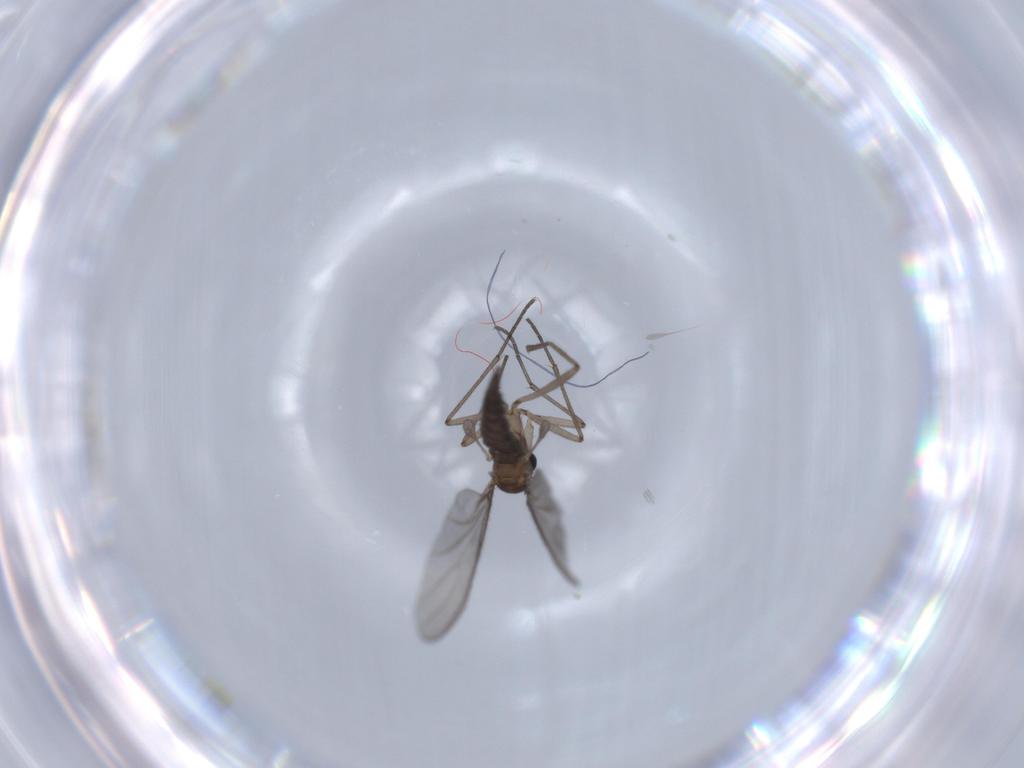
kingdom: Animalia
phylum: Arthropoda
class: Insecta
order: Diptera
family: Sciaridae
